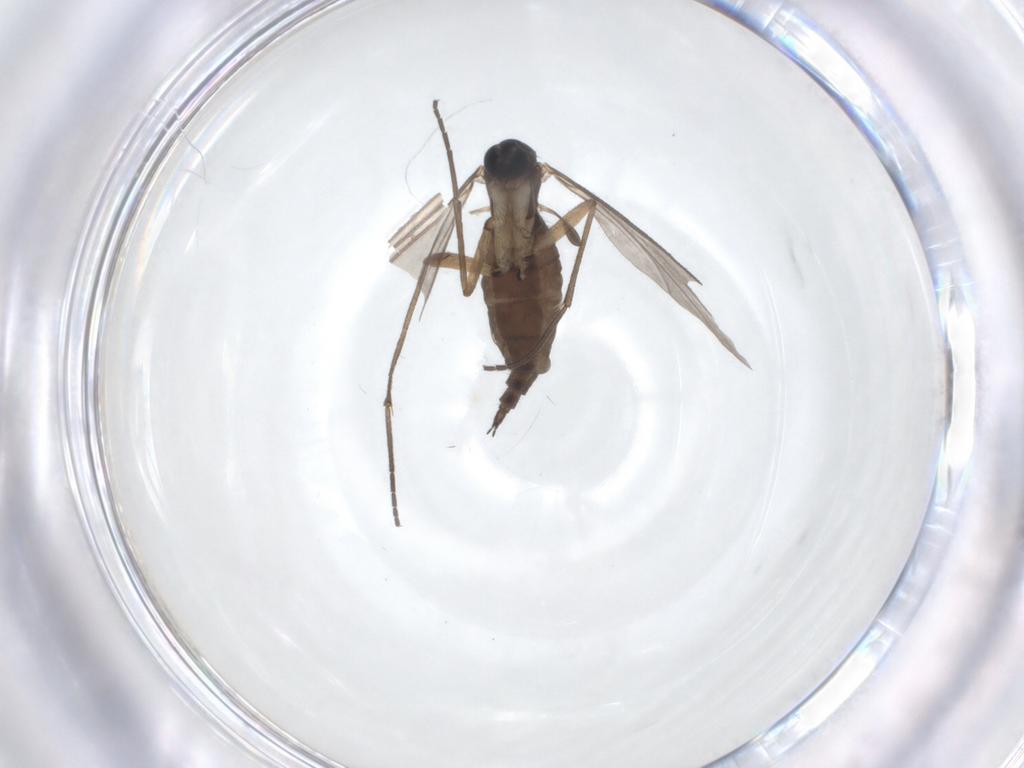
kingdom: Animalia
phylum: Arthropoda
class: Insecta
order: Diptera
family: Sciaridae
